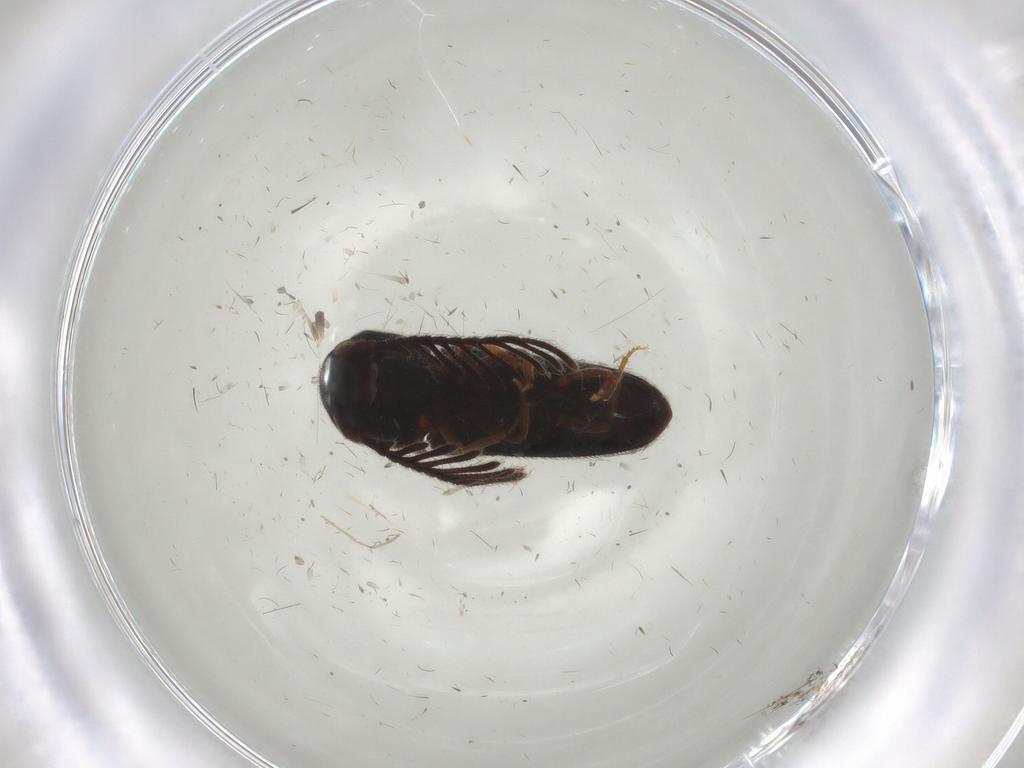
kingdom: Animalia
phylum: Arthropoda
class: Insecta
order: Coleoptera
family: Eucnemidae
